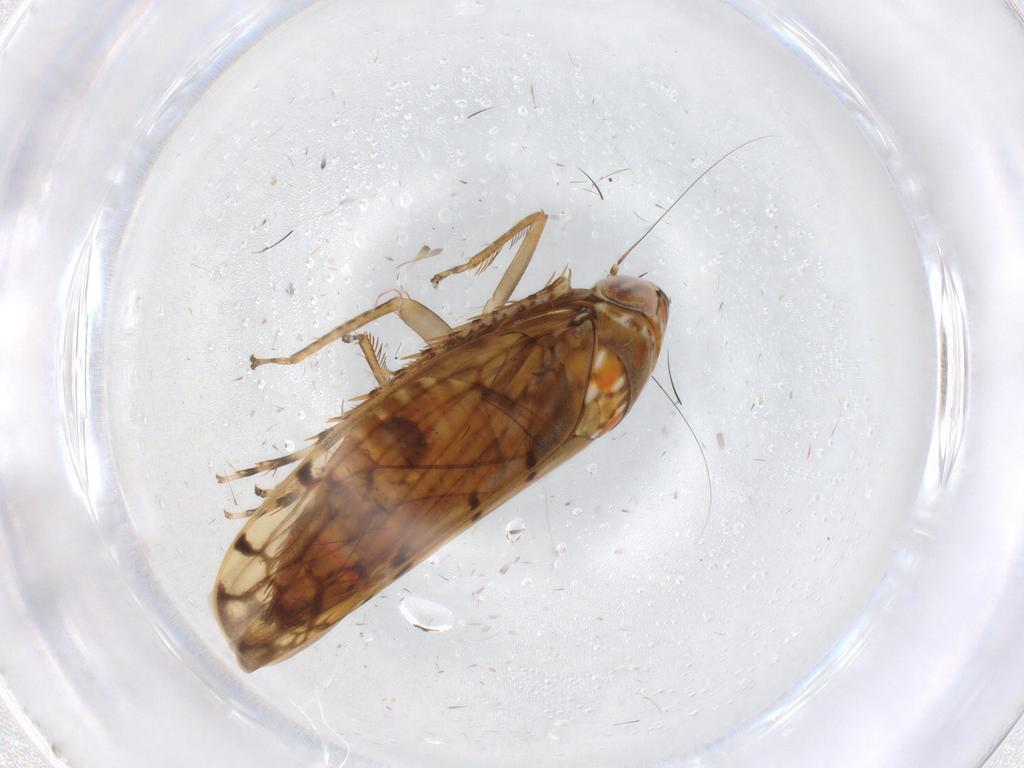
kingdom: Animalia
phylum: Arthropoda
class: Insecta
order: Hemiptera
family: Cicadellidae
